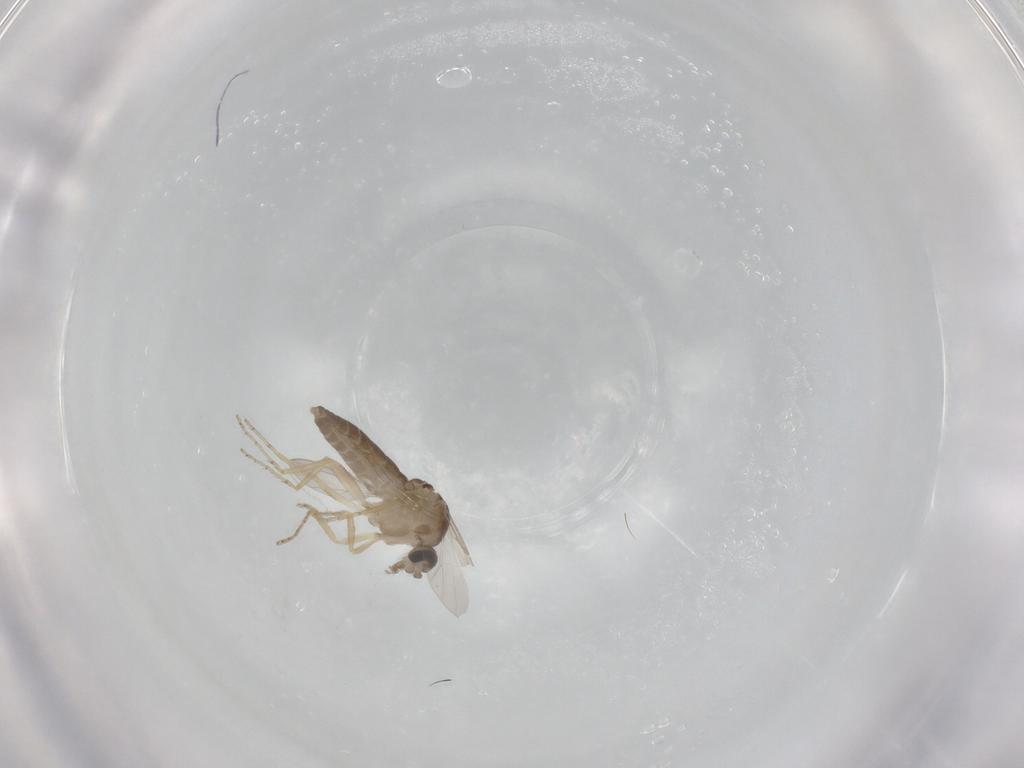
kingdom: Animalia
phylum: Arthropoda
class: Insecta
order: Diptera
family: Ceratopogonidae
